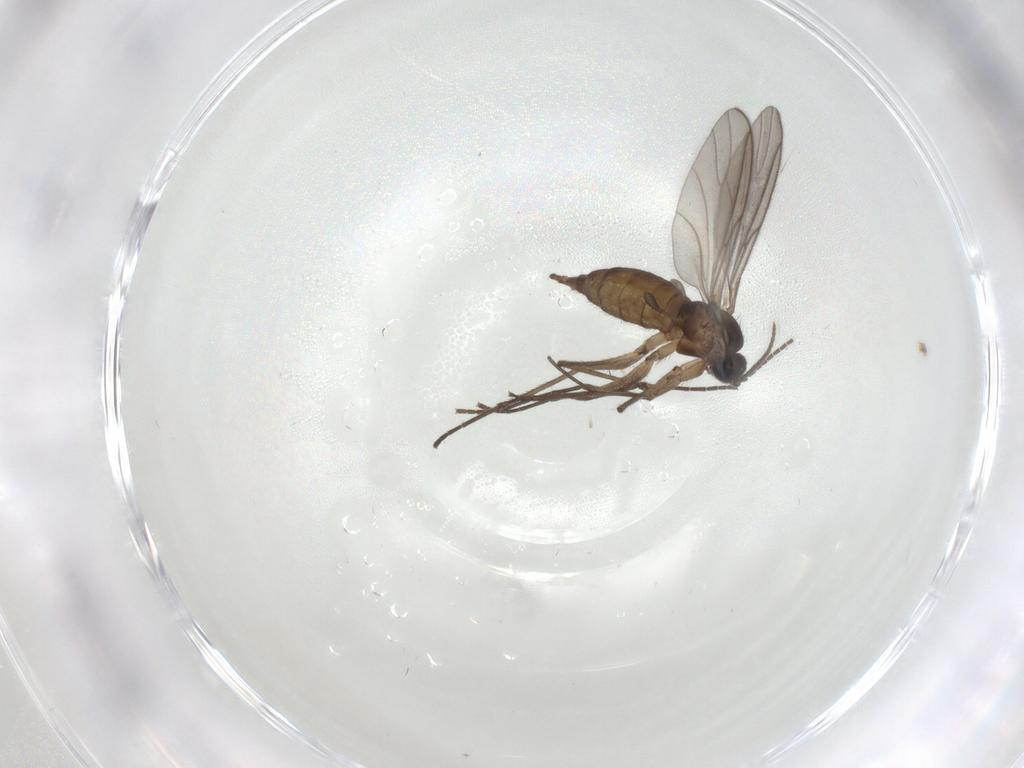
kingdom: Animalia
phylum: Arthropoda
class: Insecta
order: Diptera
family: Sciaridae
